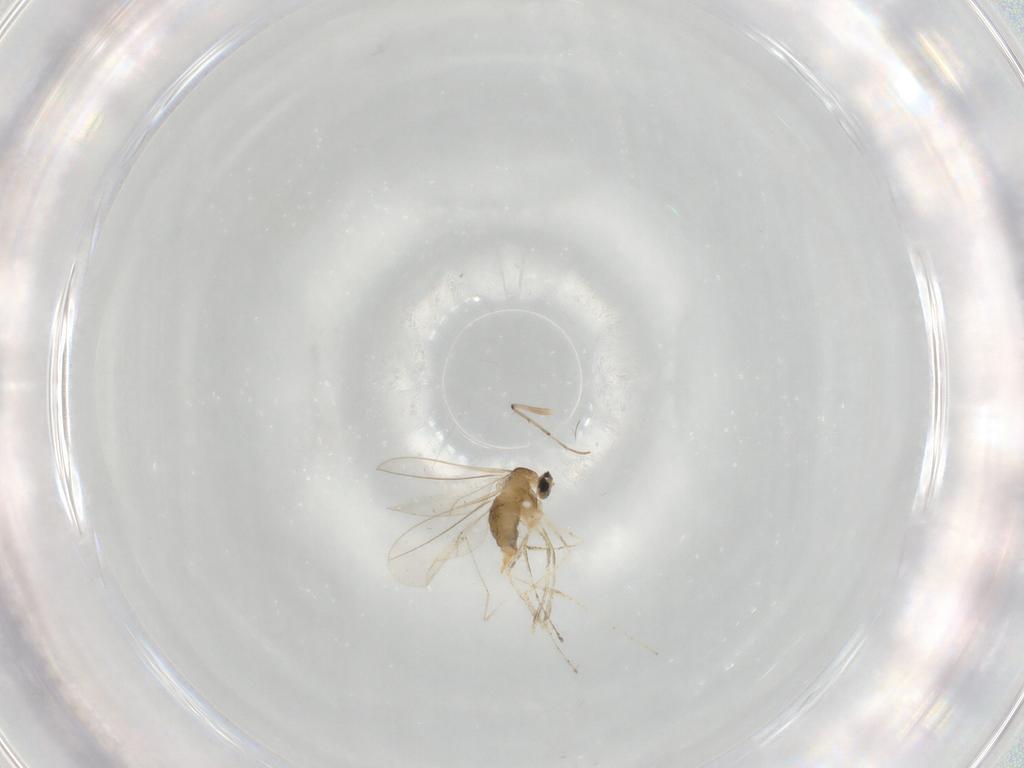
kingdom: Animalia
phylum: Arthropoda
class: Insecta
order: Diptera
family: Cecidomyiidae
